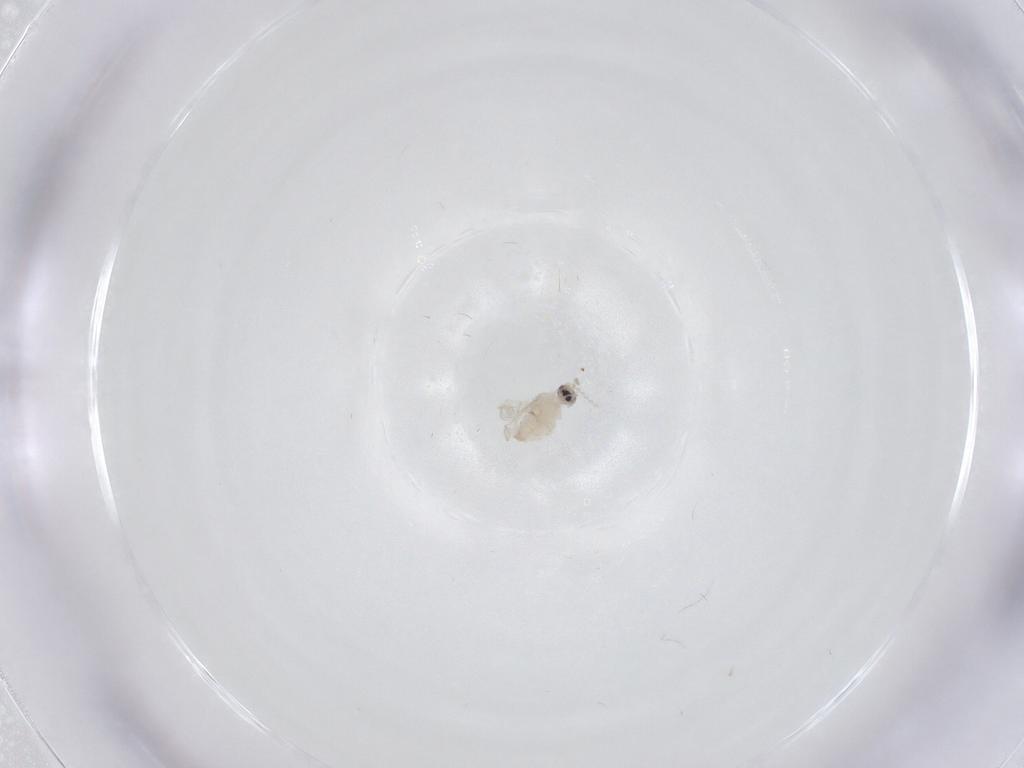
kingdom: Animalia
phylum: Arthropoda
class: Insecta
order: Diptera
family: Cecidomyiidae
